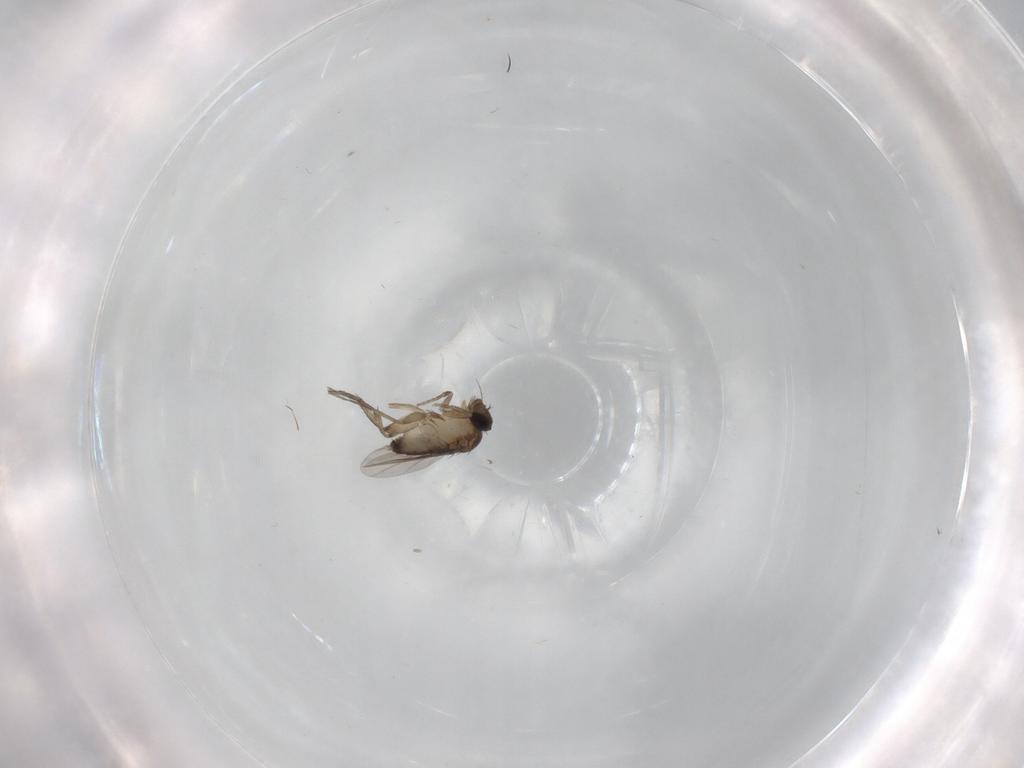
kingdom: Animalia
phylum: Arthropoda
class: Insecta
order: Diptera
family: Phoridae
